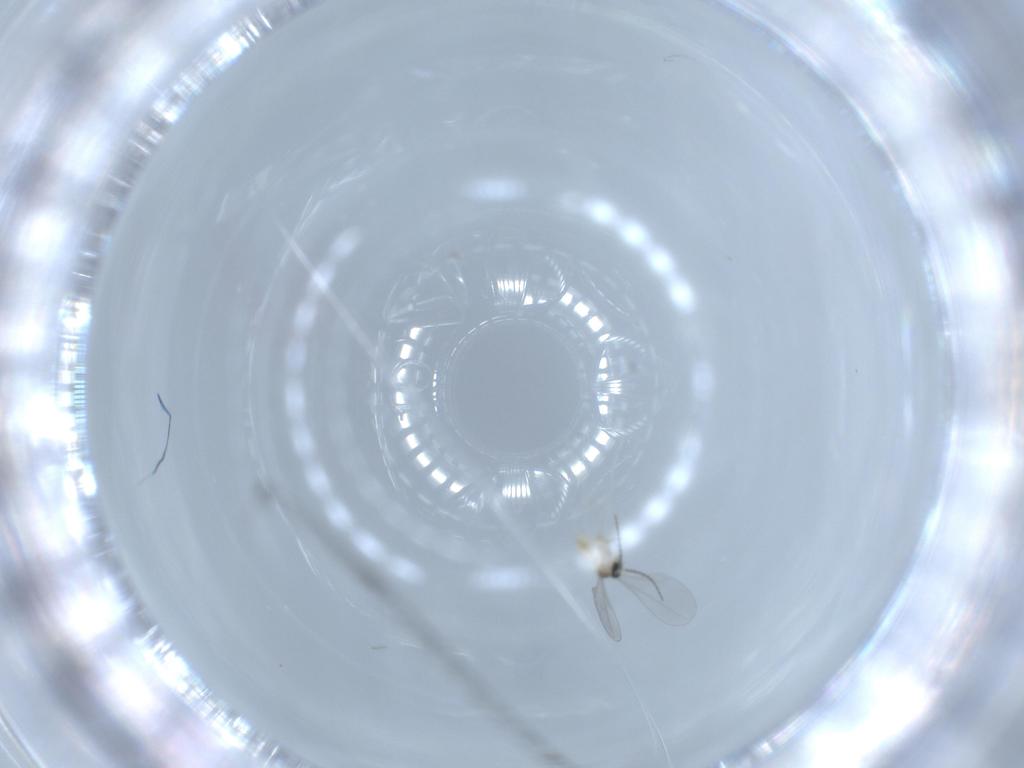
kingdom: Animalia
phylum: Arthropoda
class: Insecta
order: Diptera
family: Cecidomyiidae
